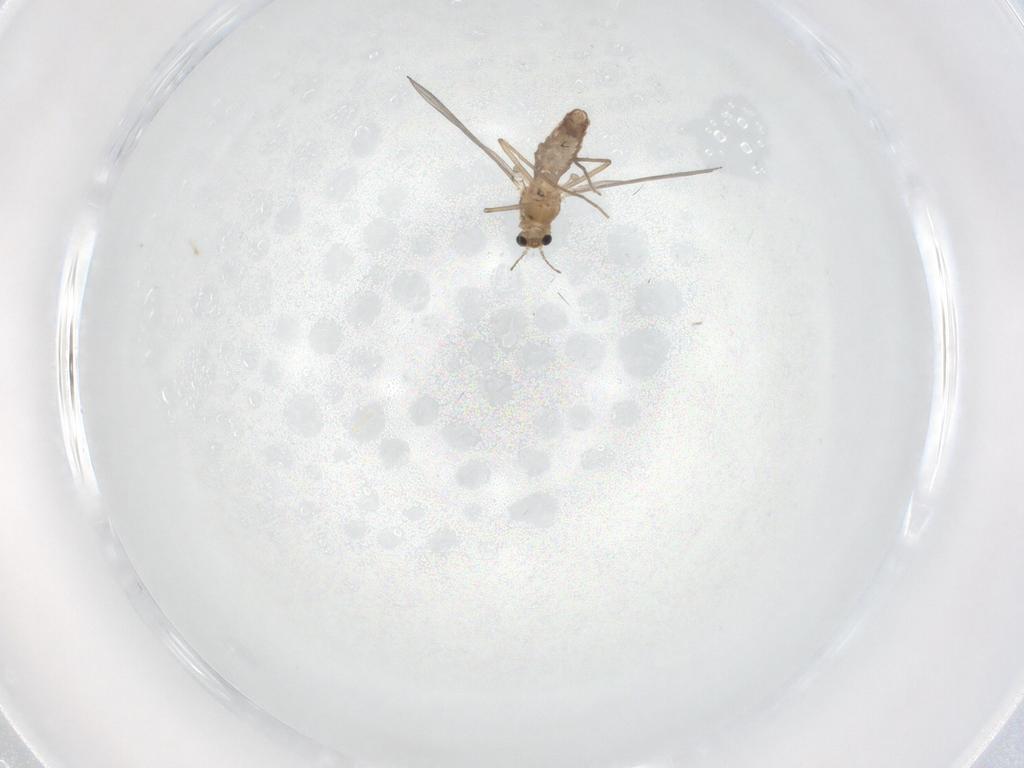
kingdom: Animalia
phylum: Arthropoda
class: Insecta
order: Diptera
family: Chironomidae
